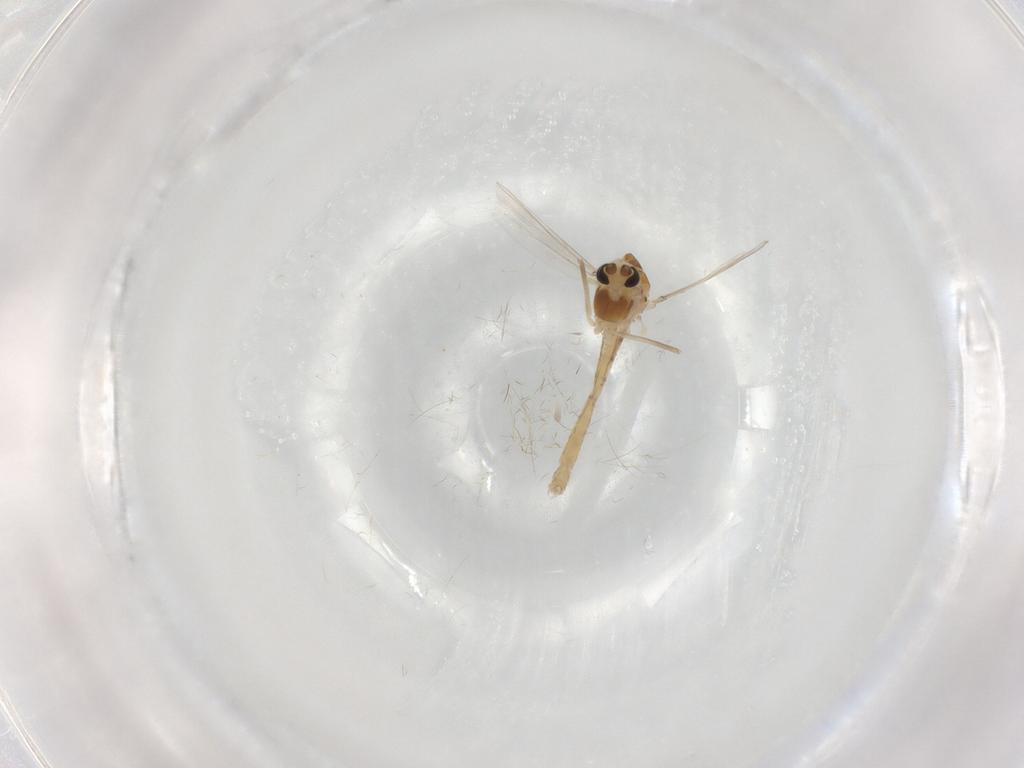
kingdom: Animalia
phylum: Arthropoda
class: Insecta
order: Diptera
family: Chironomidae
